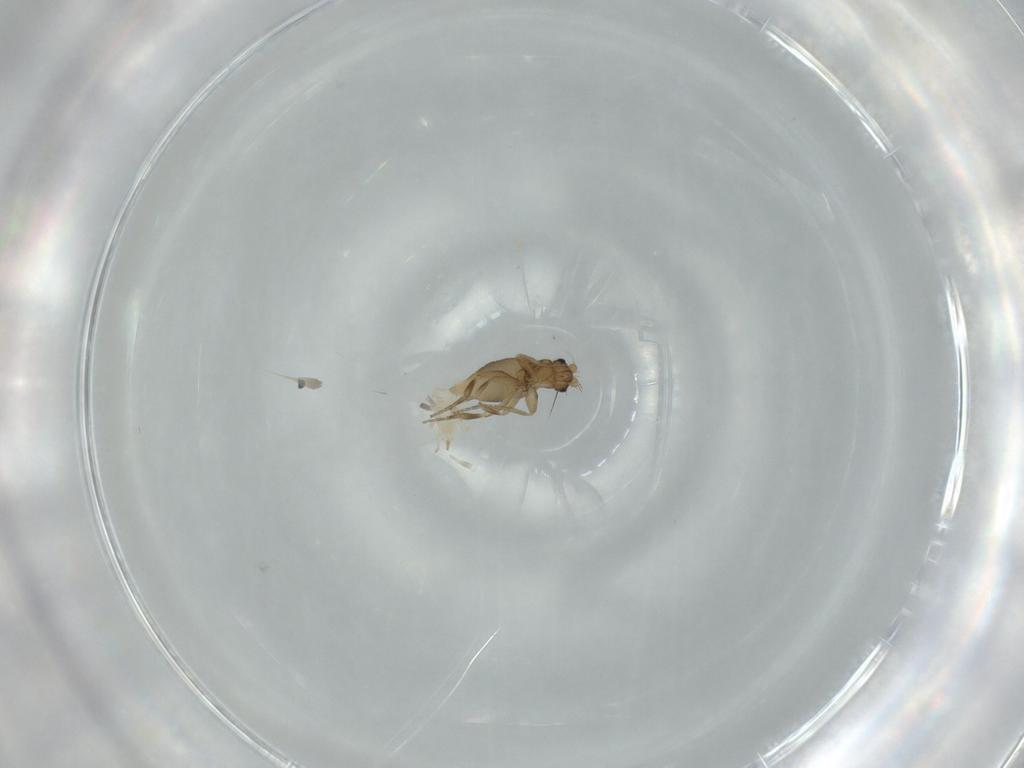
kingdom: Animalia
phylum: Arthropoda
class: Insecta
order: Diptera
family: Phoridae
